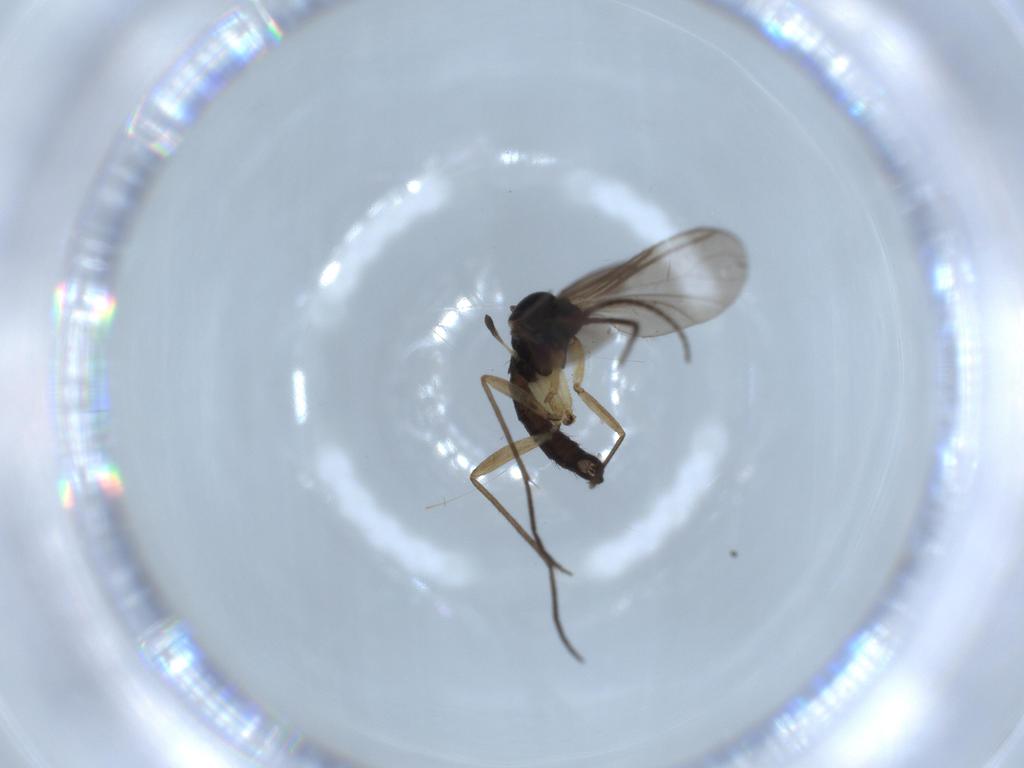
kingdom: Animalia
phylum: Arthropoda
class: Insecta
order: Diptera
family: Sciaridae
